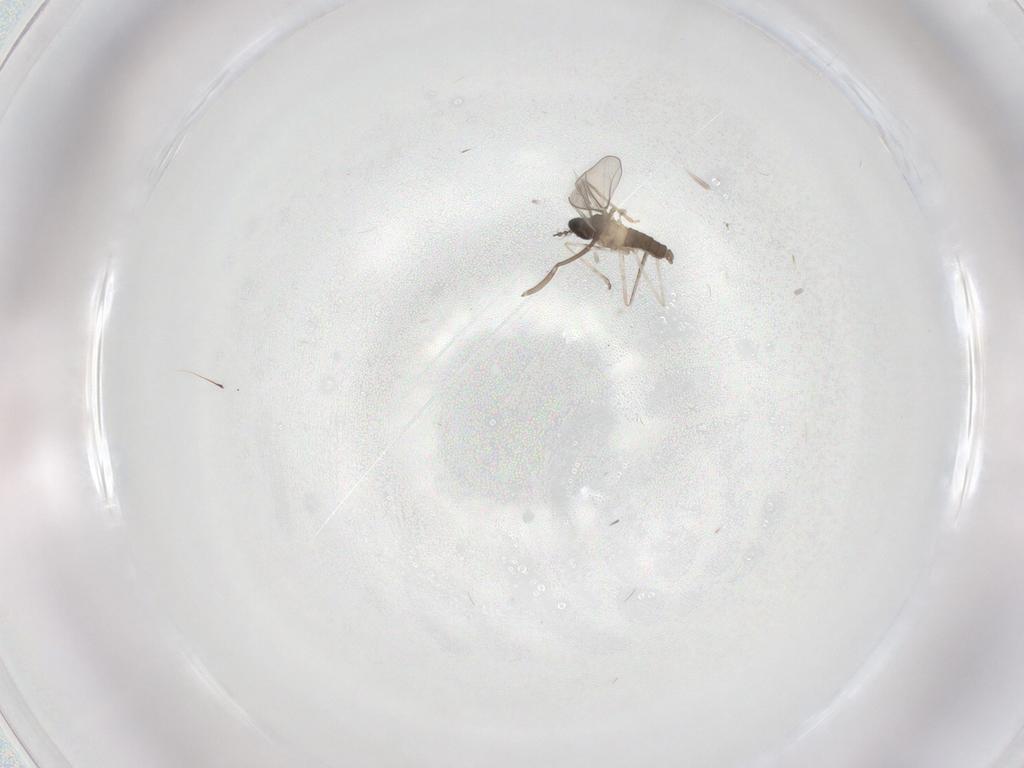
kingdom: Animalia
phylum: Arthropoda
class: Insecta
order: Diptera
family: Cecidomyiidae
